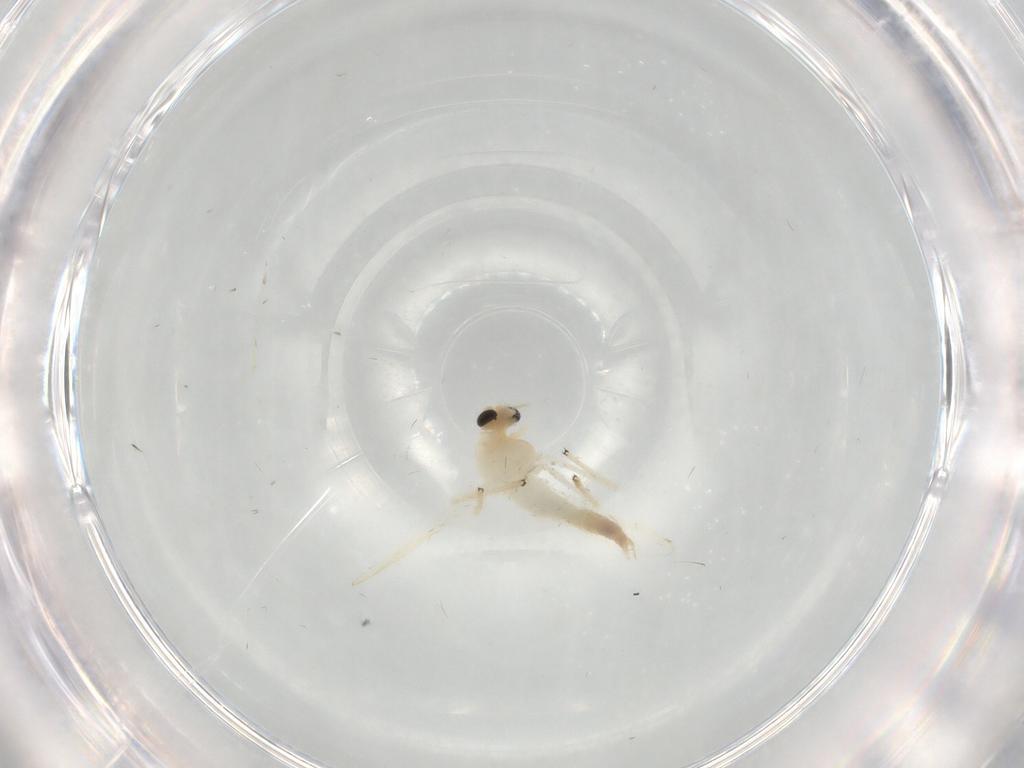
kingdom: Animalia
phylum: Arthropoda
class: Insecta
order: Diptera
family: Chironomidae
